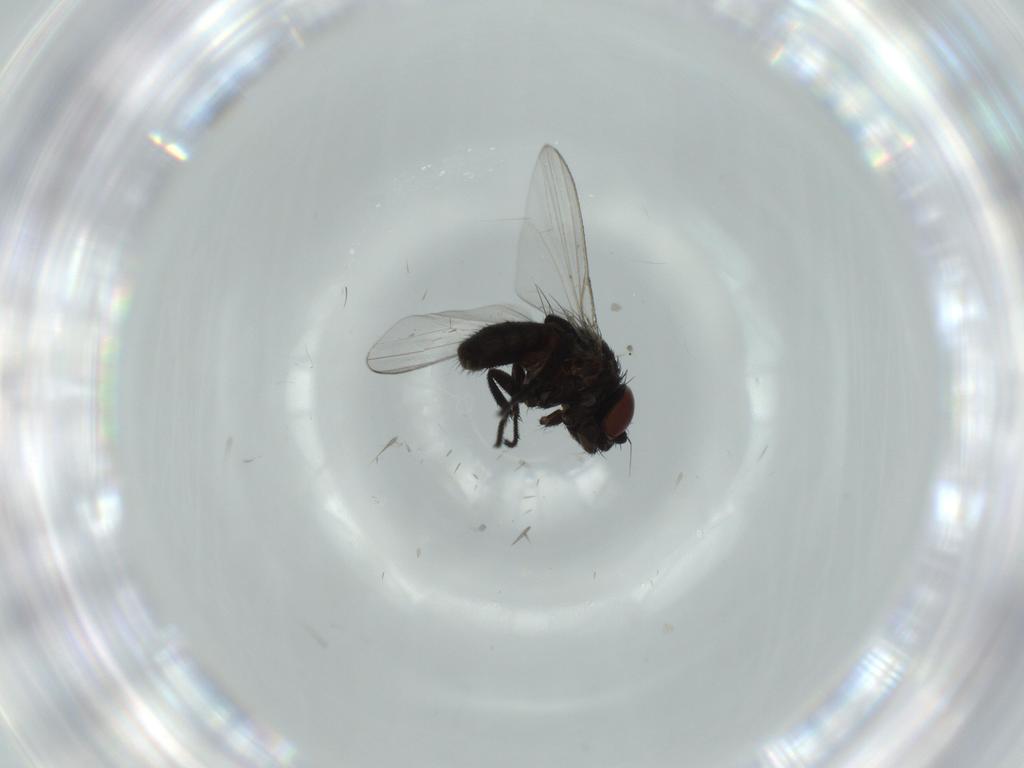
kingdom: Animalia
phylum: Arthropoda
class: Insecta
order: Diptera
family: Milichiidae
